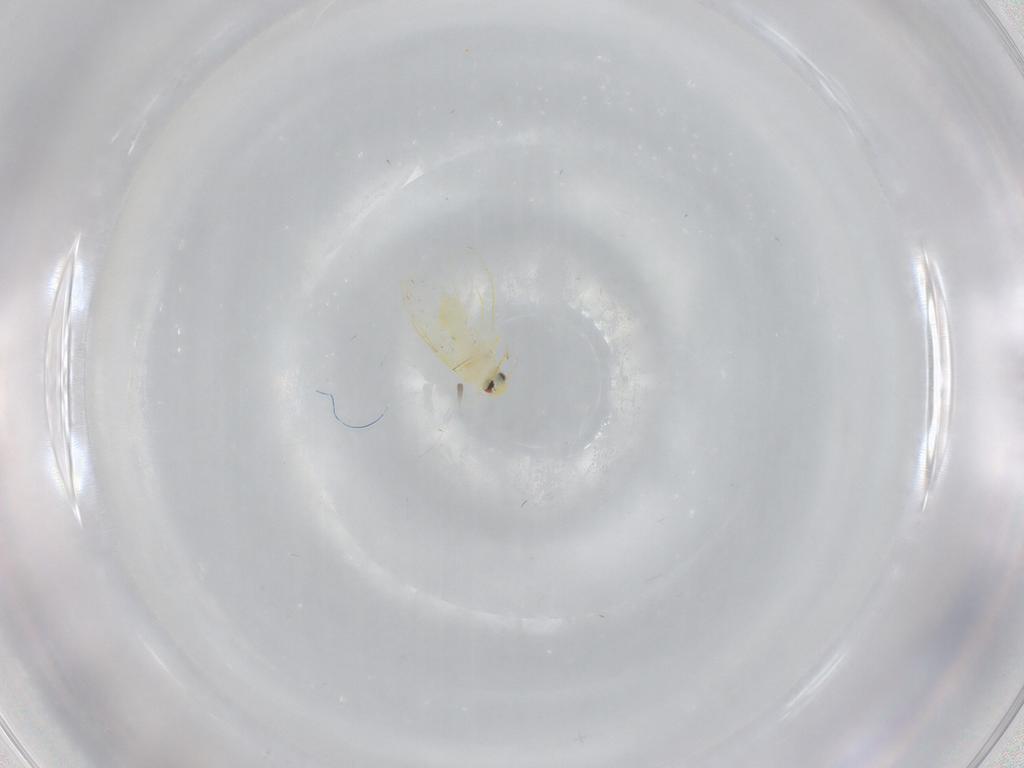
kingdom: Animalia
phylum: Arthropoda
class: Insecta
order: Hemiptera
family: Aleyrodidae
